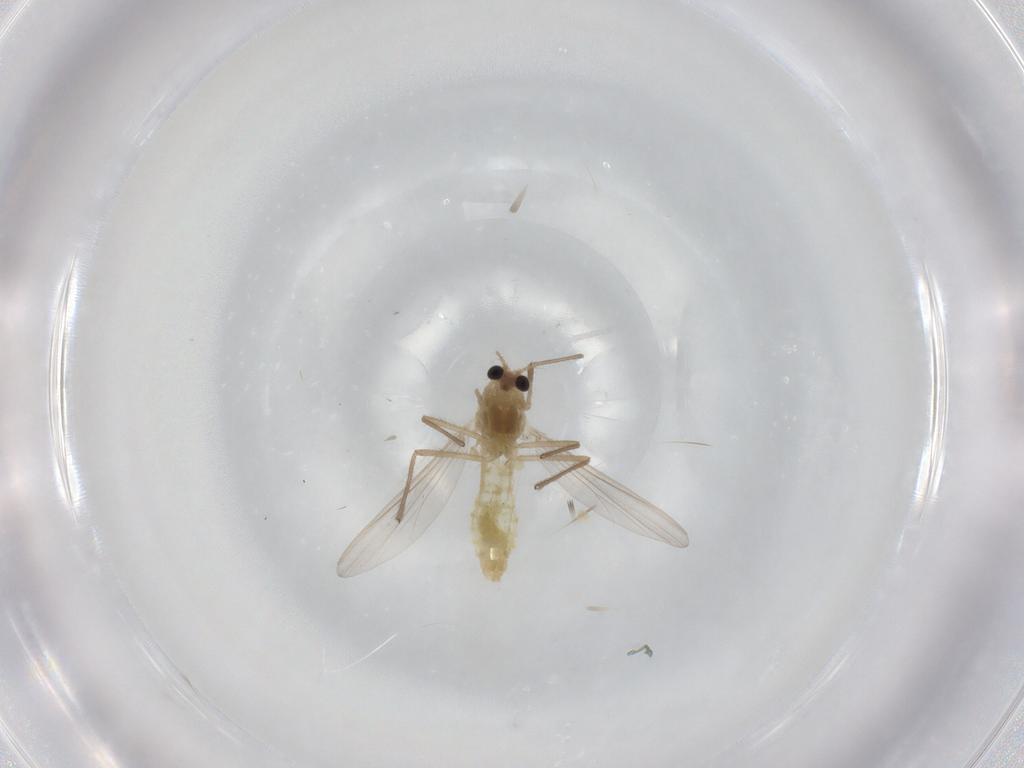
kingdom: Animalia
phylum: Arthropoda
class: Insecta
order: Diptera
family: Chironomidae
